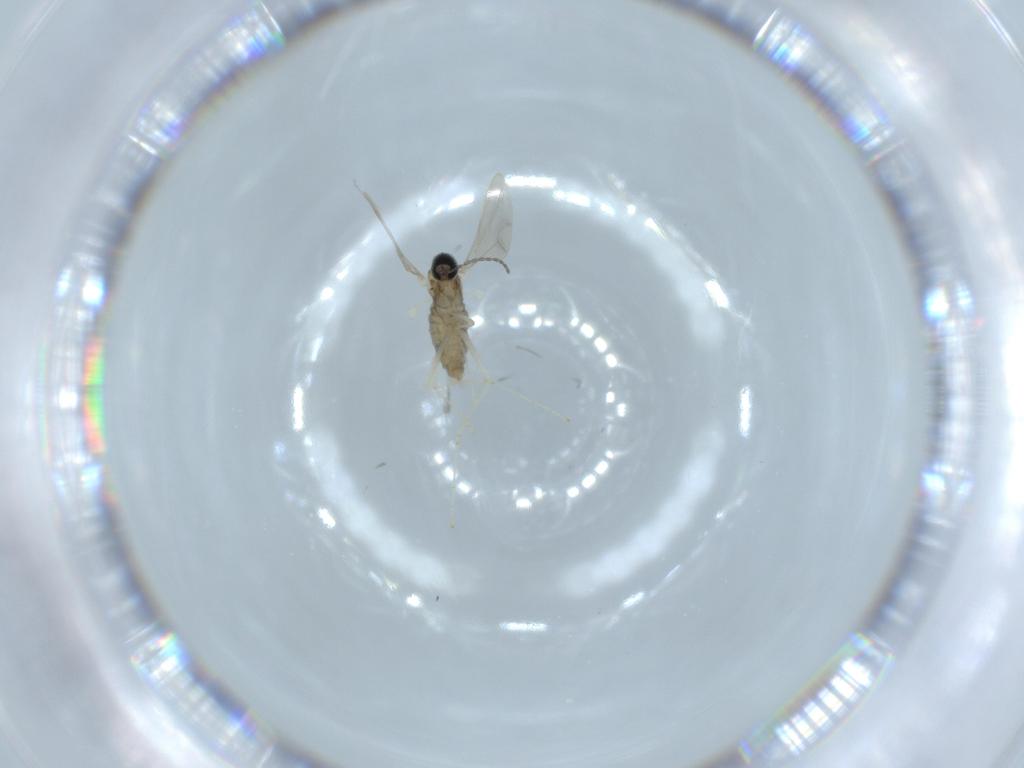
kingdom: Animalia
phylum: Arthropoda
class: Insecta
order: Diptera
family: Cecidomyiidae
